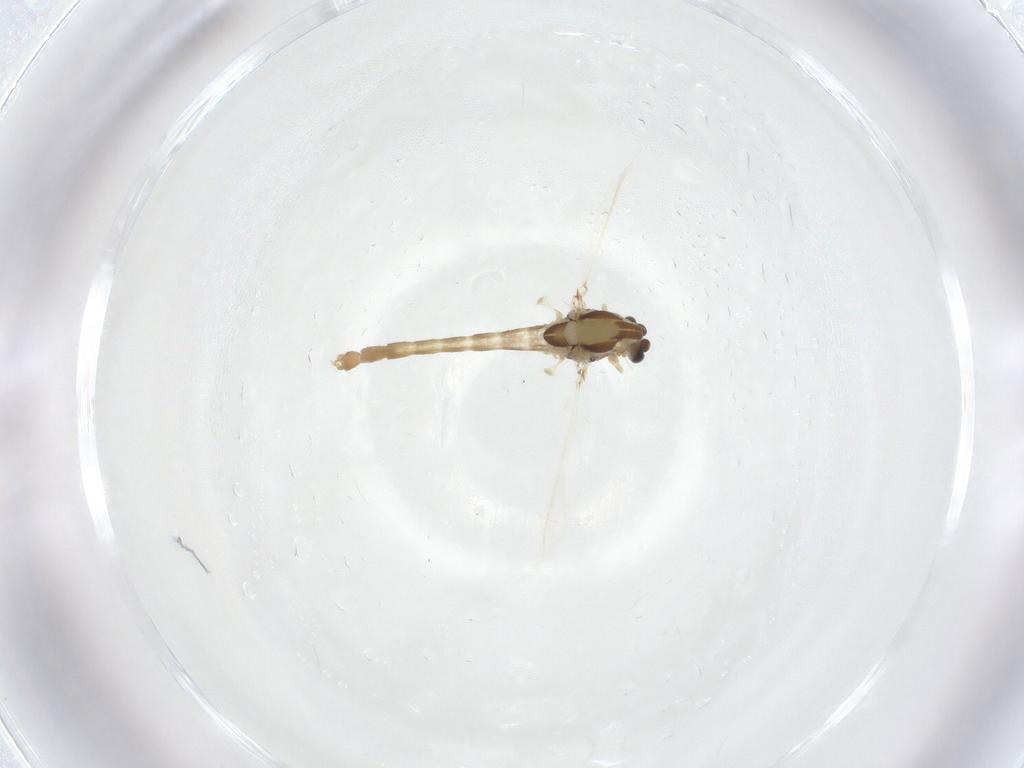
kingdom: Animalia
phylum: Arthropoda
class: Insecta
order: Diptera
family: Chironomidae
